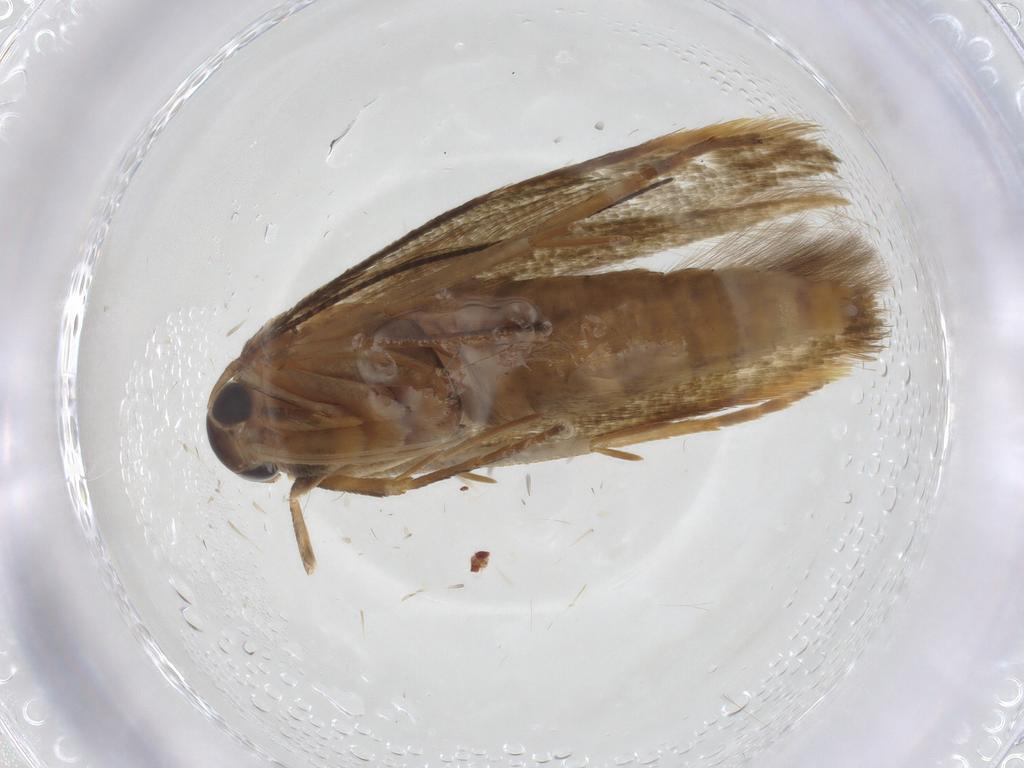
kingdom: Animalia
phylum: Arthropoda
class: Insecta
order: Lepidoptera
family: Stathmopodidae
